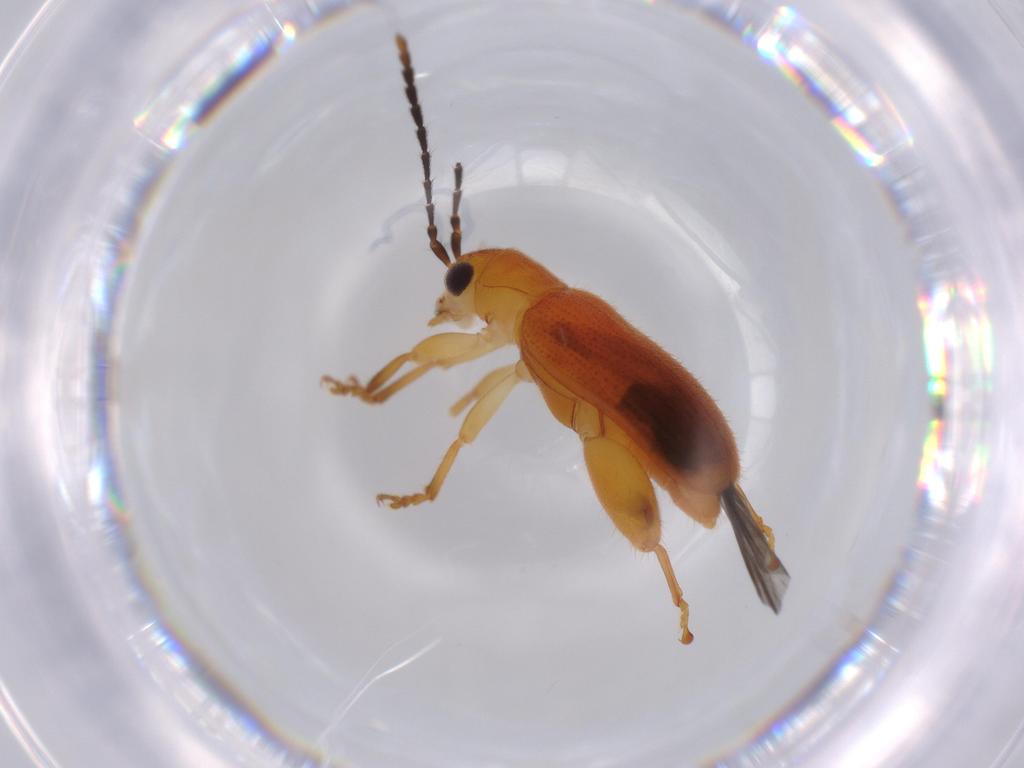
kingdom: Animalia
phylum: Arthropoda
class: Insecta
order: Coleoptera
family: Chrysomelidae
